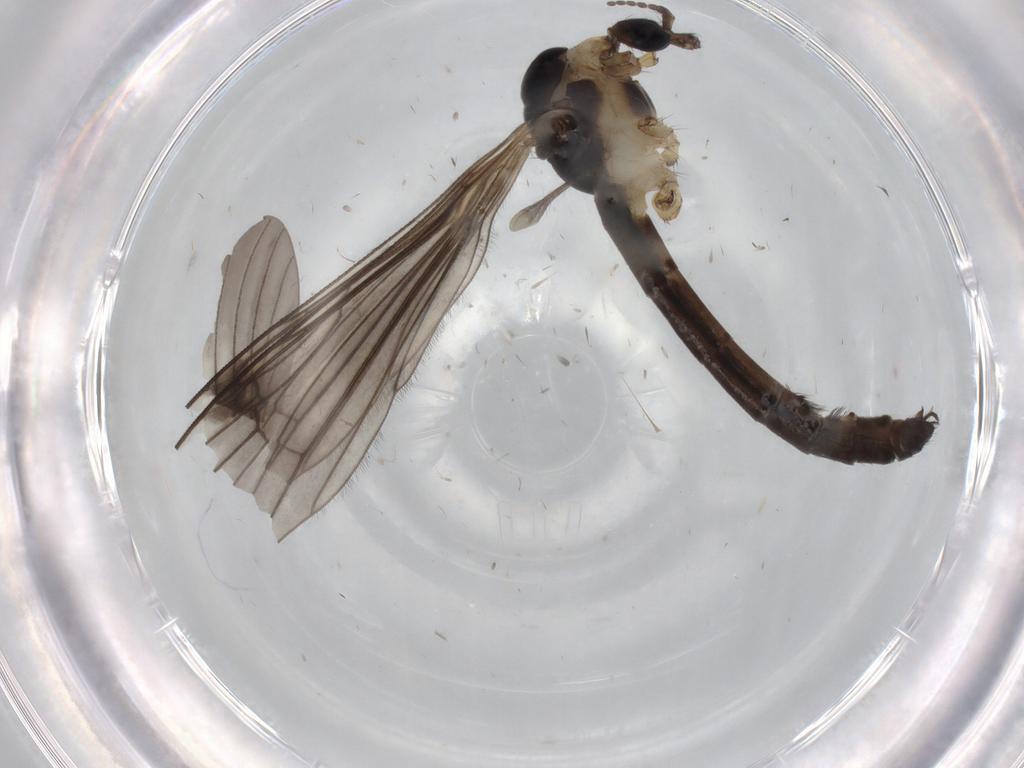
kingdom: Animalia
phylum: Arthropoda
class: Insecta
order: Diptera
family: Limoniidae
